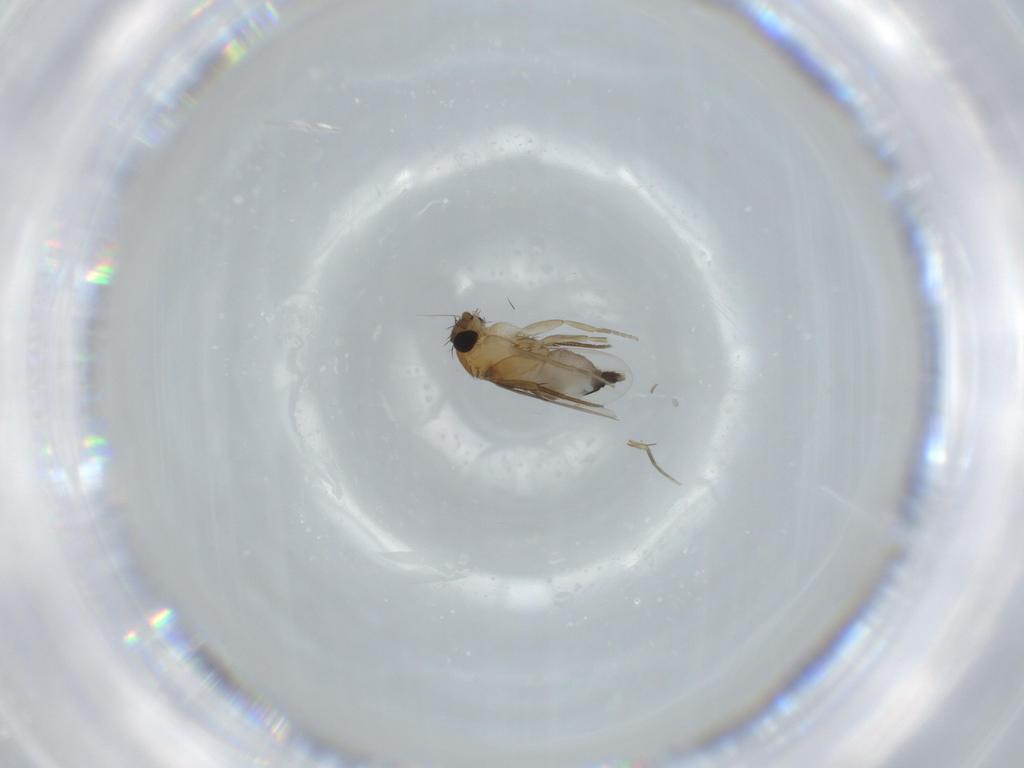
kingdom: Animalia
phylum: Arthropoda
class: Insecta
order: Diptera
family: Phoridae
